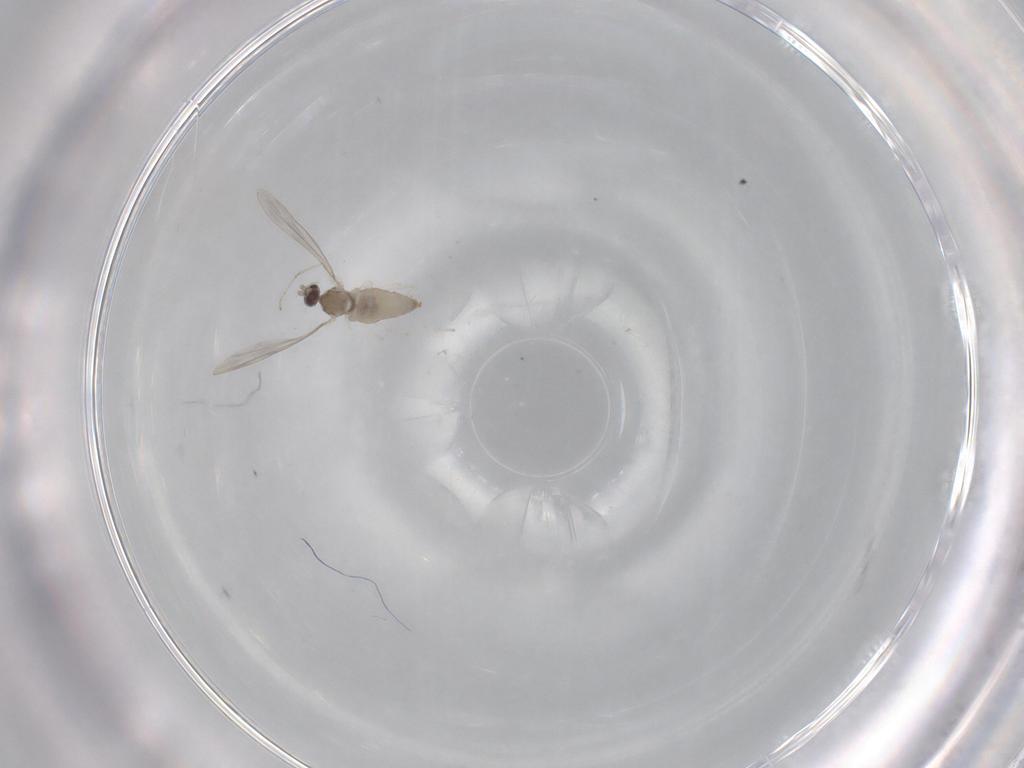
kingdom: Animalia
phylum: Arthropoda
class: Insecta
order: Diptera
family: Cecidomyiidae
